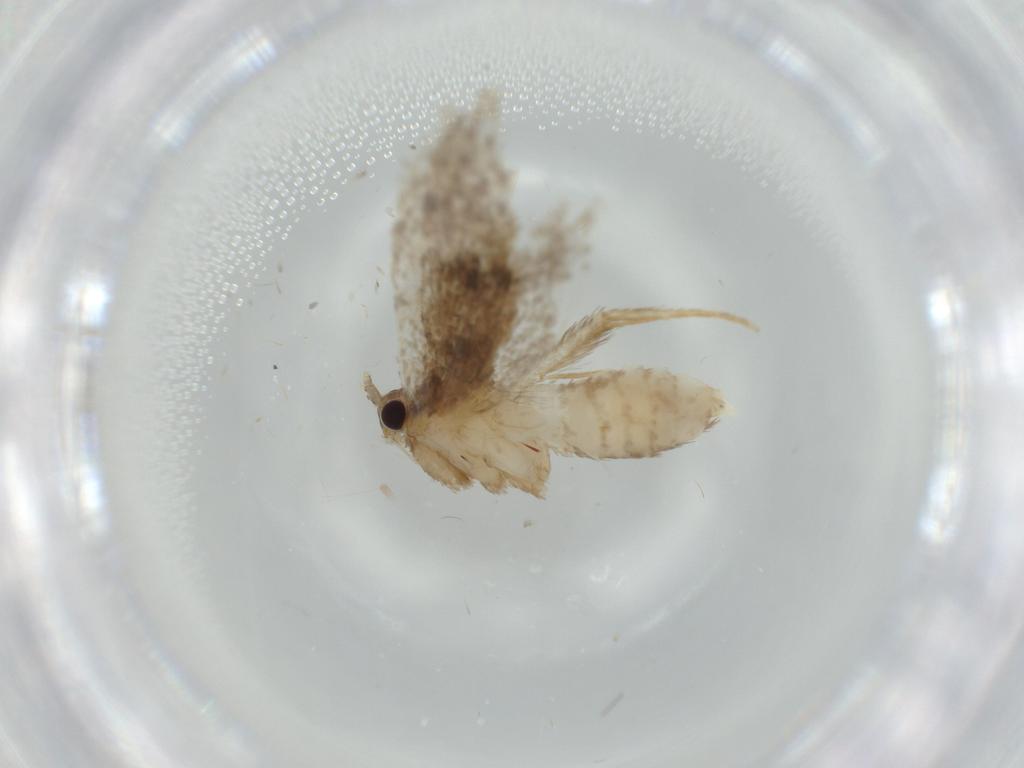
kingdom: Animalia
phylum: Arthropoda
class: Insecta
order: Lepidoptera
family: Tineidae
